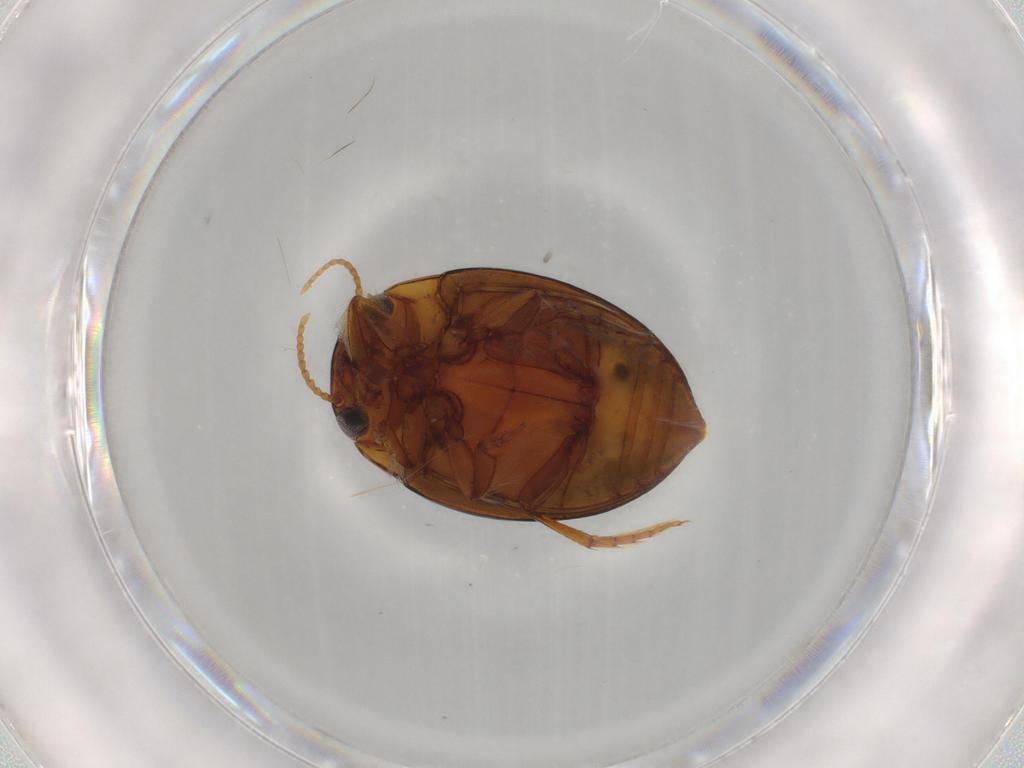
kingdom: Animalia
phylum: Arthropoda
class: Insecta
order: Coleoptera
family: Dytiscidae
